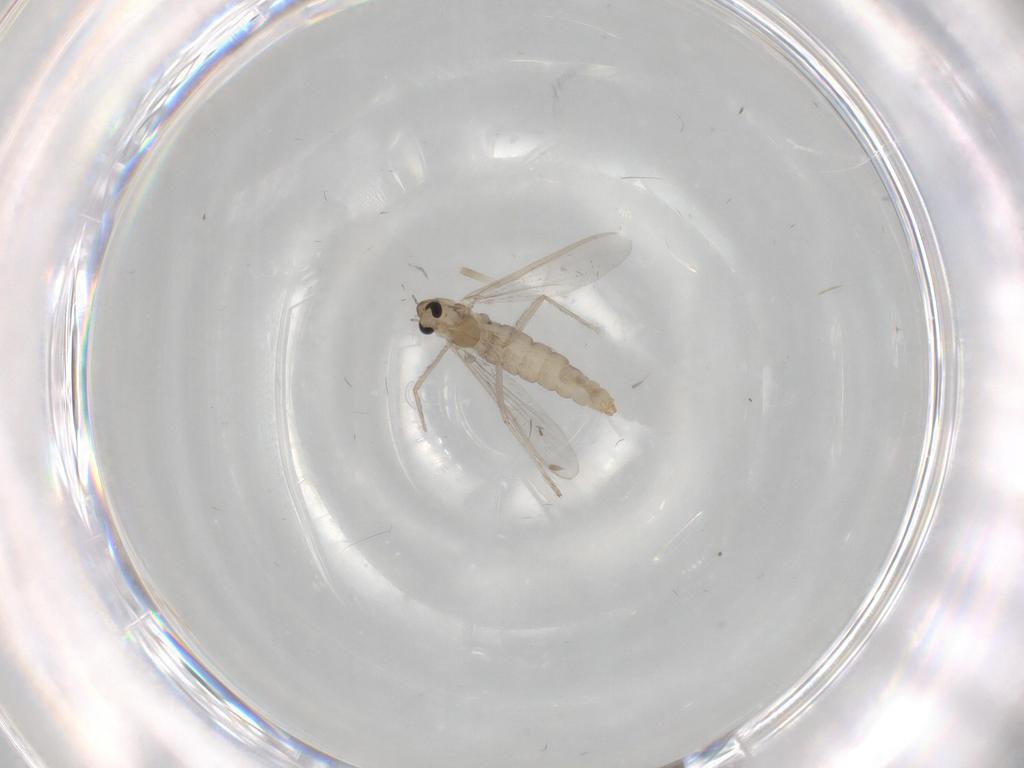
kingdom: Animalia
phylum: Arthropoda
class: Insecta
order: Diptera
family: Chironomidae
